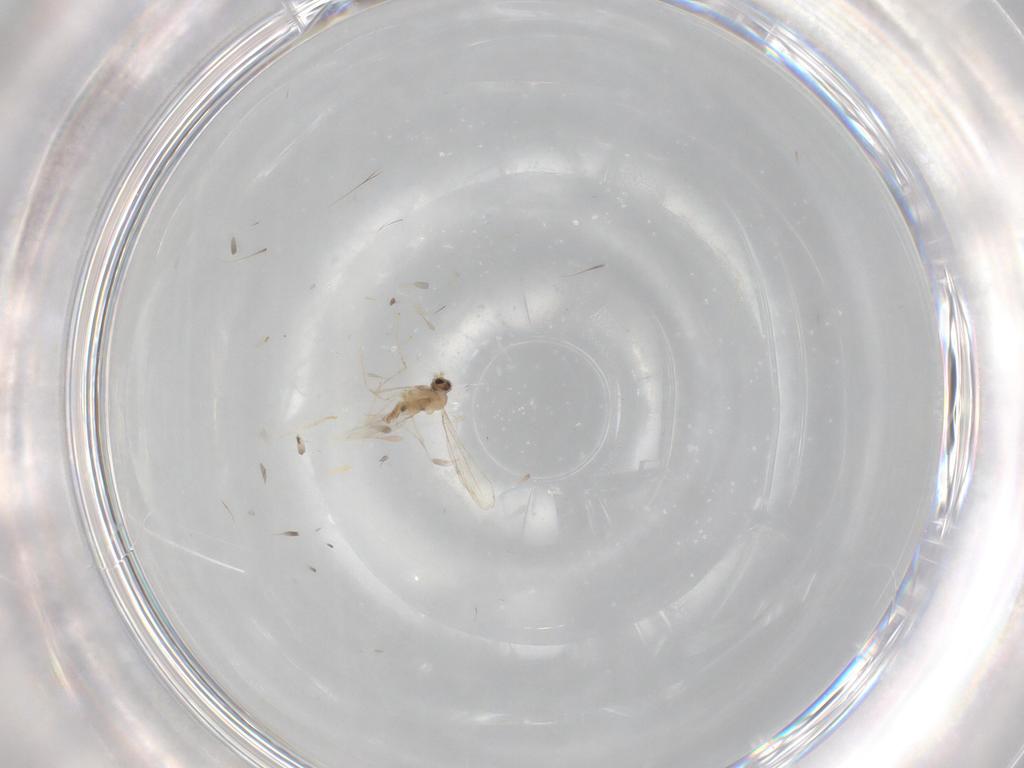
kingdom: Animalia
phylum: Arthropoda
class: Insecta
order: Diptera
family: Cecidomyiidae
